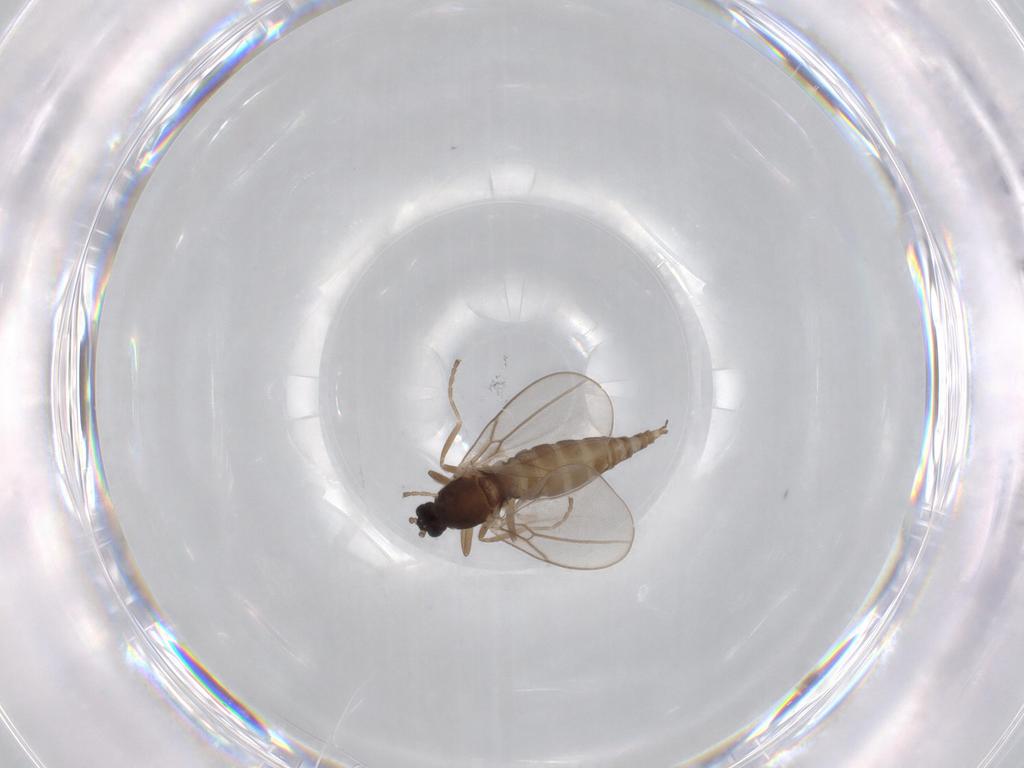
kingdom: Animalia
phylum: Arthropoda
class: Insecta
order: Diptera
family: Cecidomyiidae
